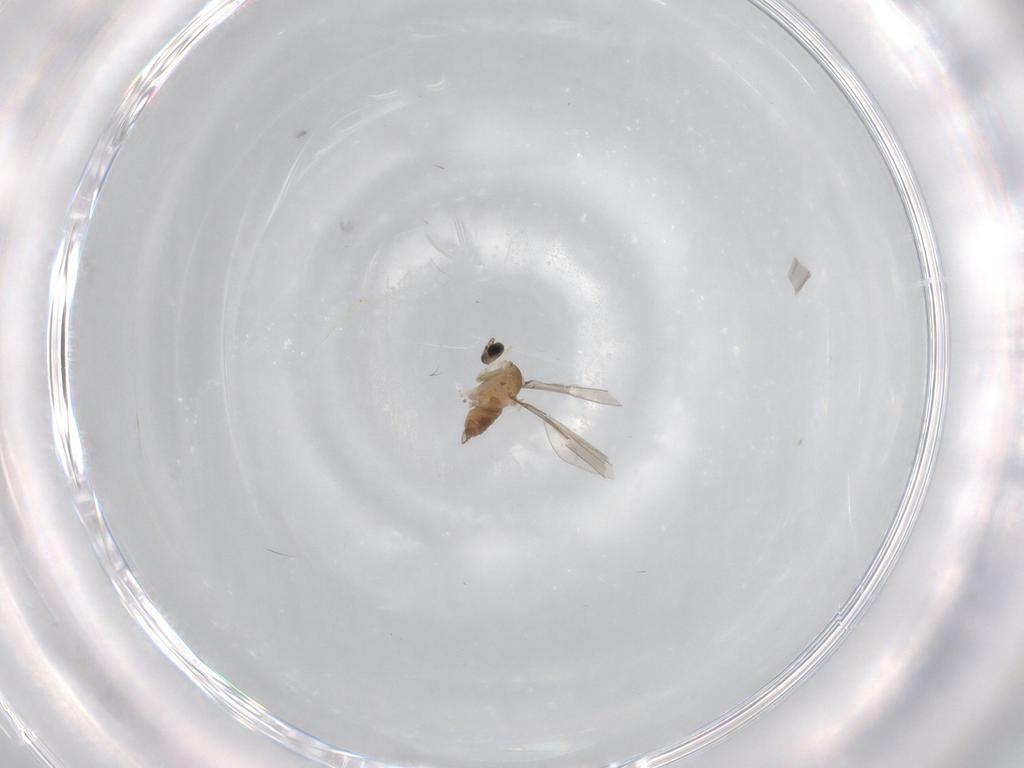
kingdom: Animalia
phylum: Arthropoda
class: Insecta
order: Diptera
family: Cecidomyiidae
